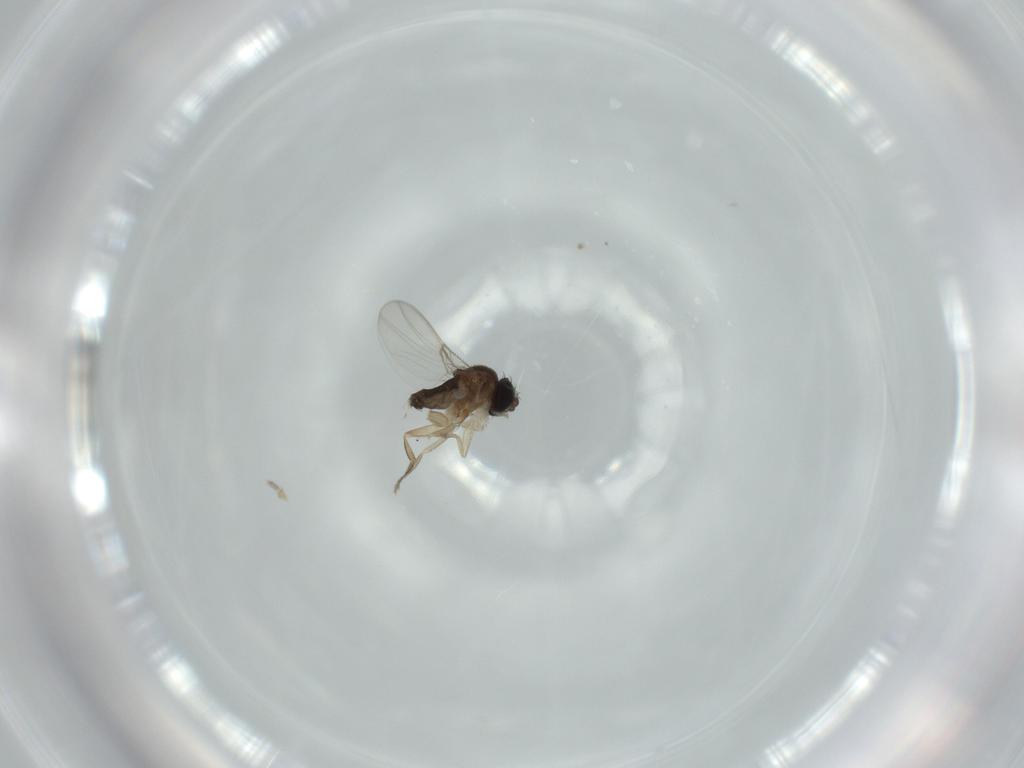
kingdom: Animalia
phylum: Arthropoda
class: Insecta
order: Diptera
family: Phoridae
